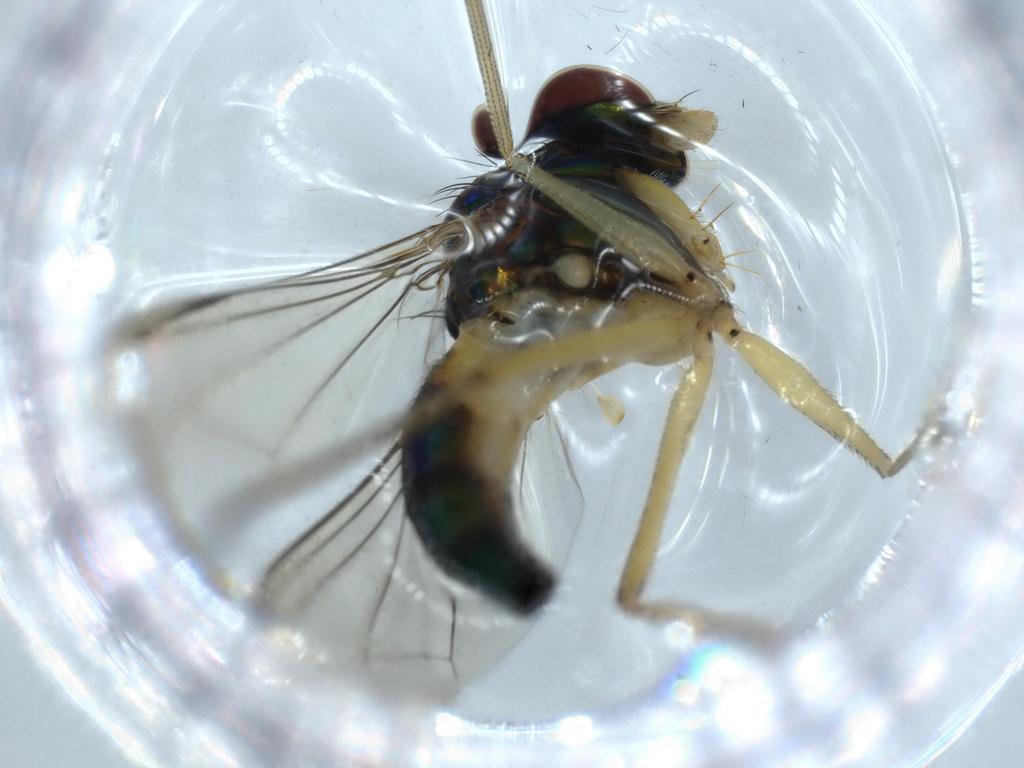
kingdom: Animalia
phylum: Arthropoda
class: Insecta
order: Diptera
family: Dolichopodidae
